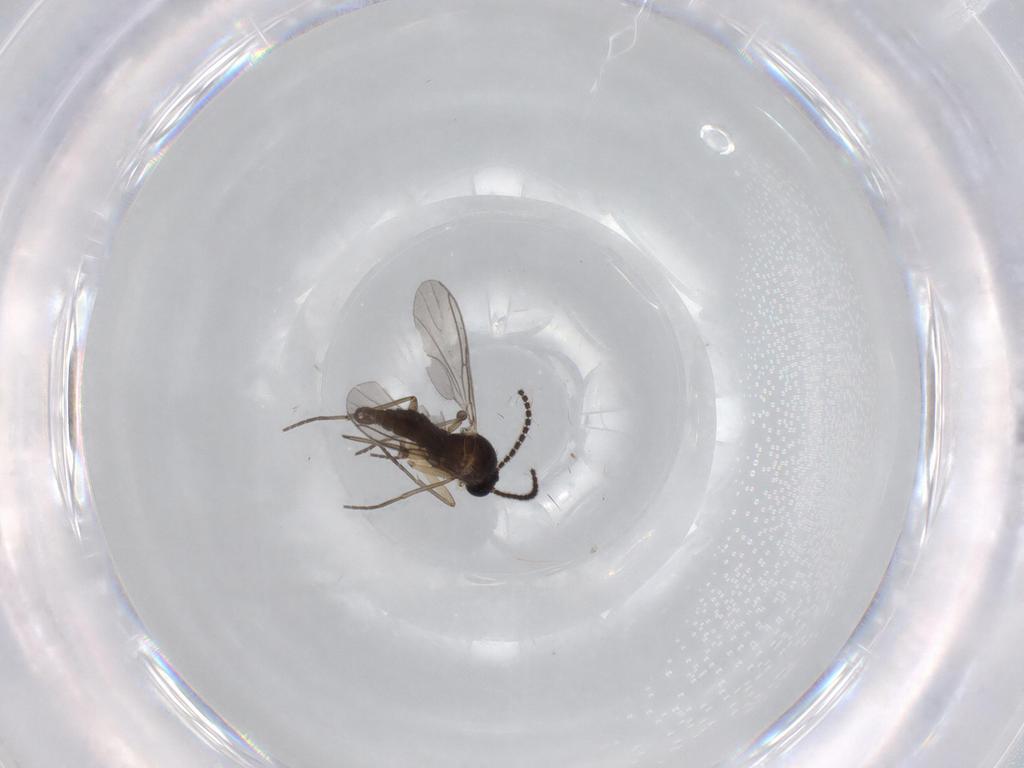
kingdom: Animalia
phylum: Arthropoda
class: Insecta
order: Diptera
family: Sciaridae
